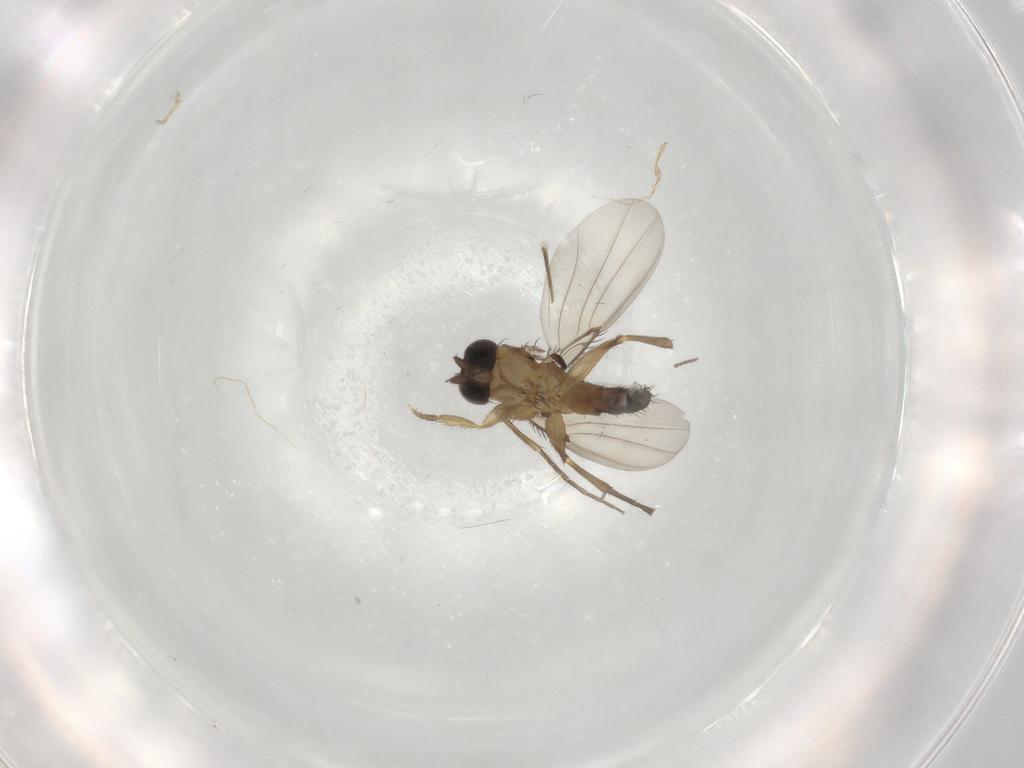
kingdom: Animalia
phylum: Arthropoda
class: Insecta
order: Diptera
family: Phoridae
